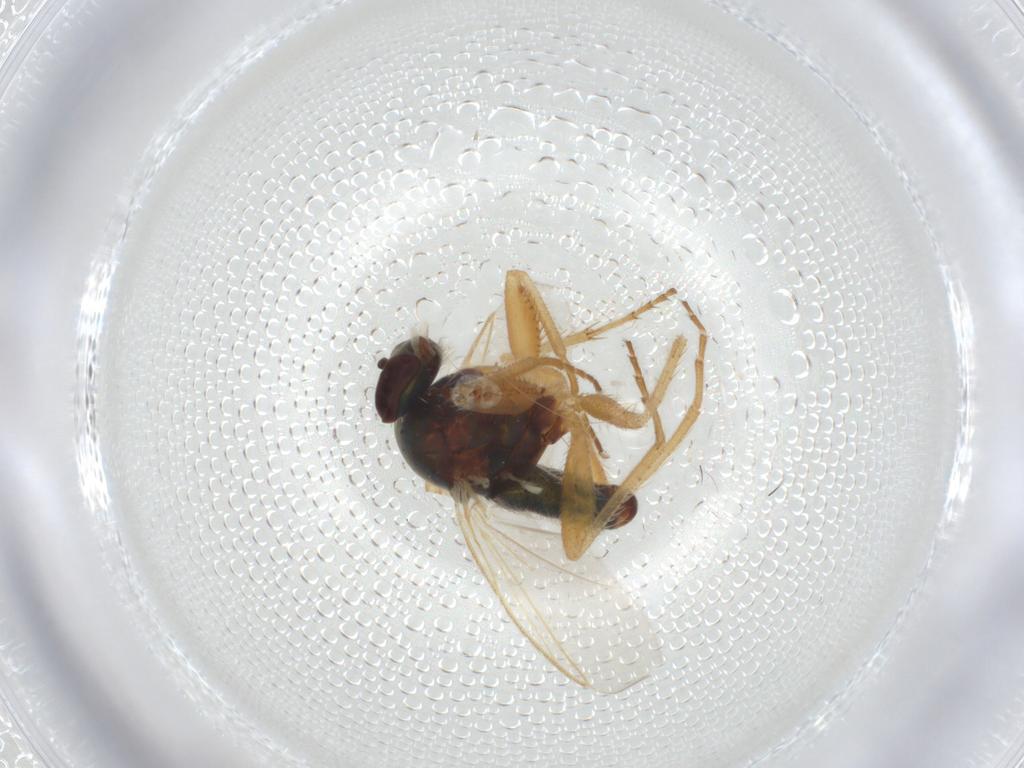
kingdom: Animalia
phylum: Arthropoda
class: Insecta
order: Diptera
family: Dolichopodidae
